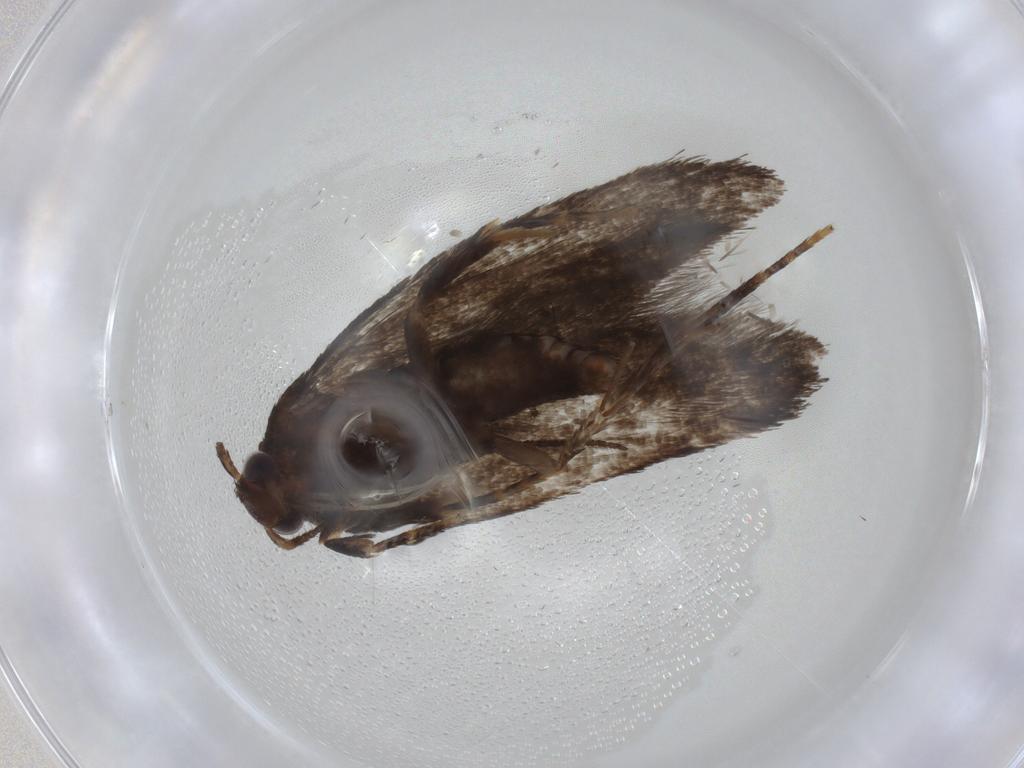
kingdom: Animalia
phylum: Arthropoda
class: Insecta
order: Lepidoptera
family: Oecophoridae
